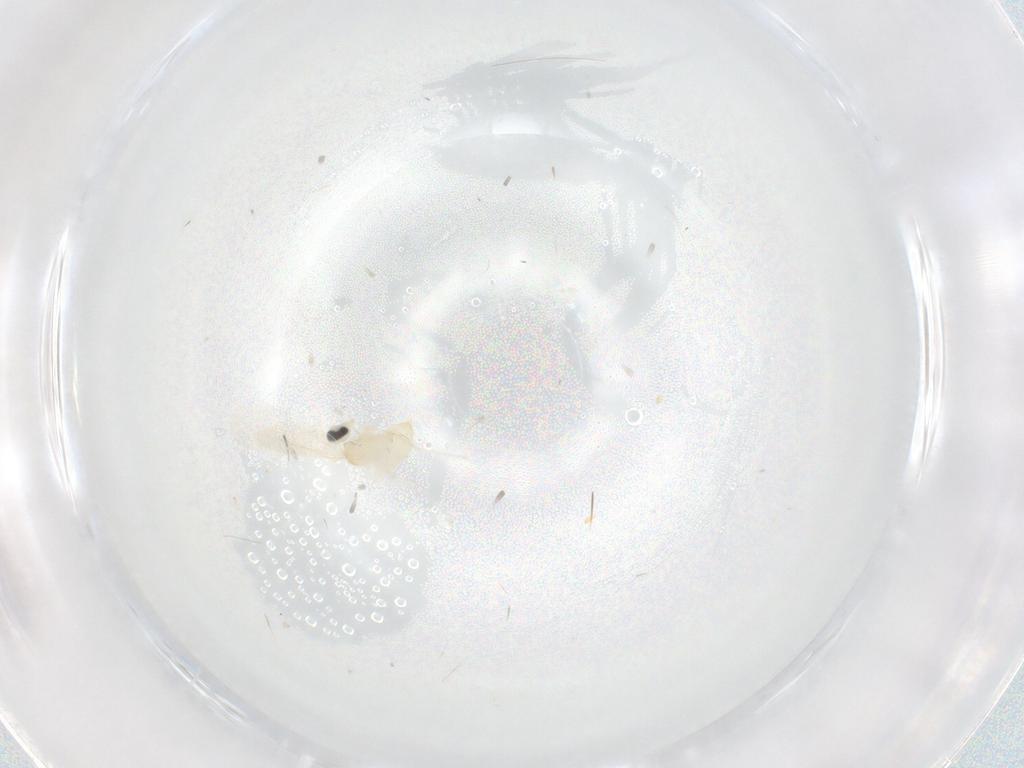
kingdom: Animalia
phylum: Arthropoda
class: Insecta
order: Diptera
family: Cecidomyiidae
